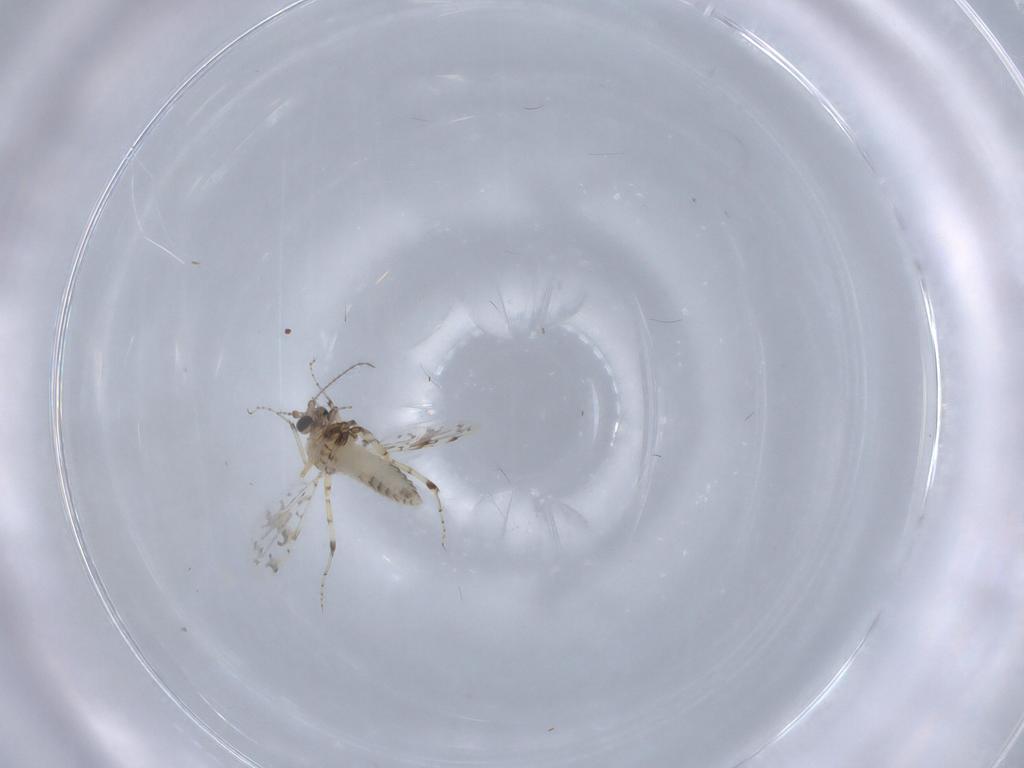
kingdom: Animalia
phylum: Arthropoda
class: Insecta
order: Diptera
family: Ceratopogonidae
